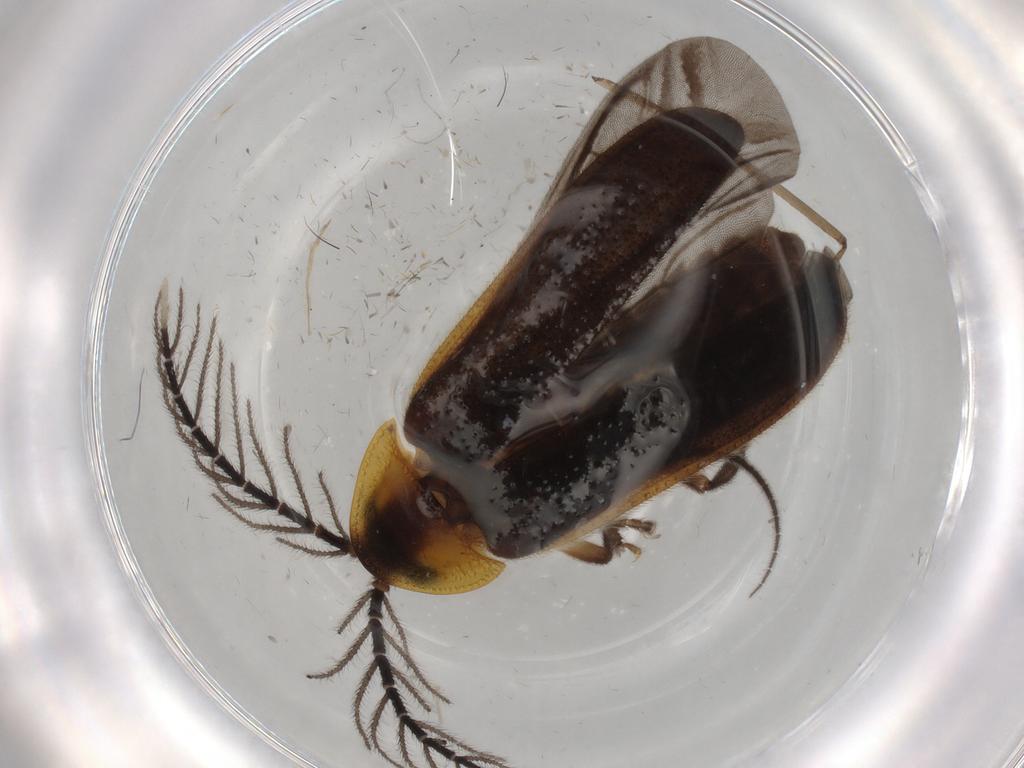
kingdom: Animalia
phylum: Arthropoda
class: Insecta
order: Coleoptera
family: Lampyridae
